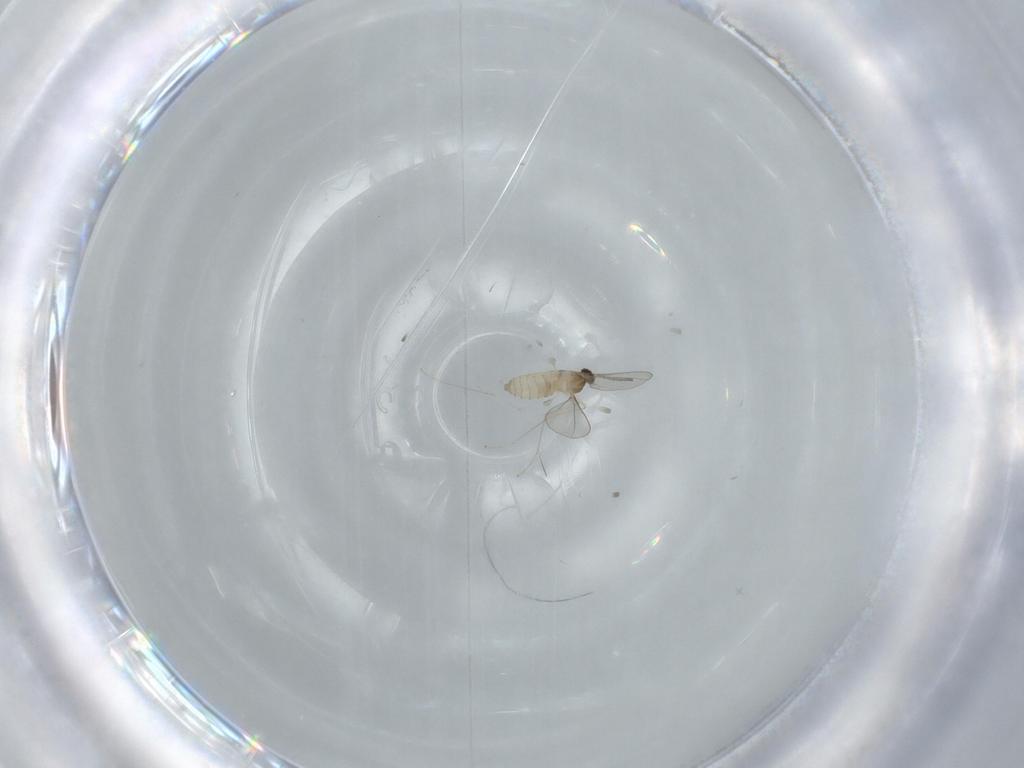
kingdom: Animalia
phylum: Arthropoda
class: Insecta
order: Diptera
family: Cecidomyiidae
